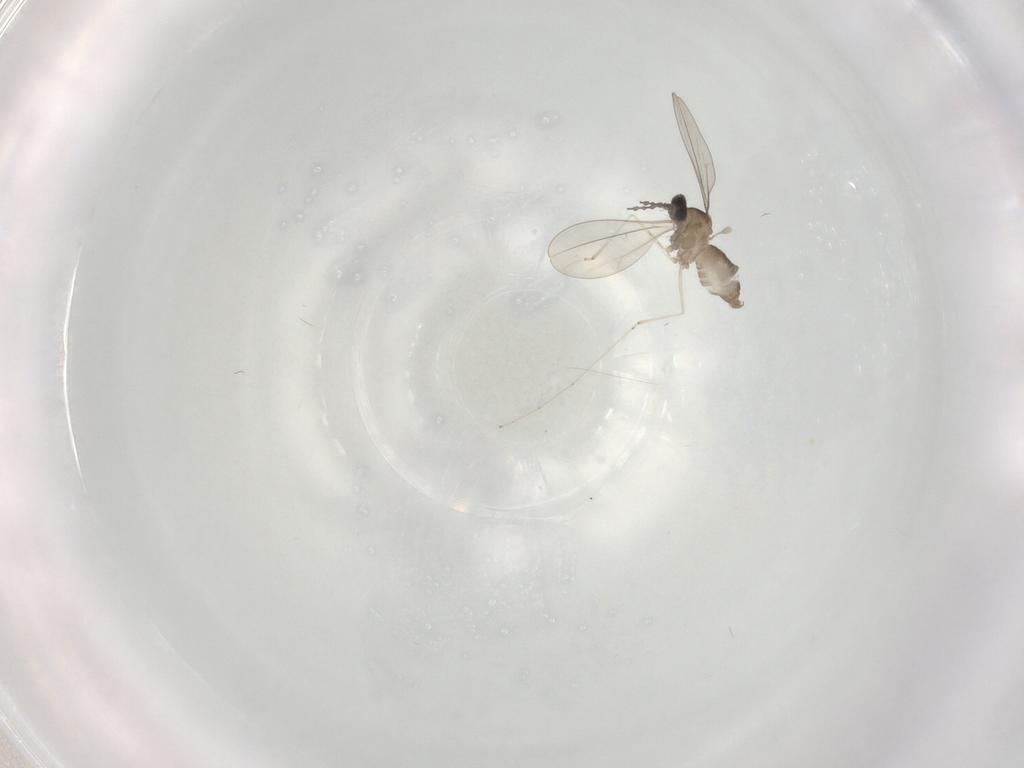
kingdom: Animalia
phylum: Arthropoda
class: Insecta
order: Diptera
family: Cecidomyiidae
